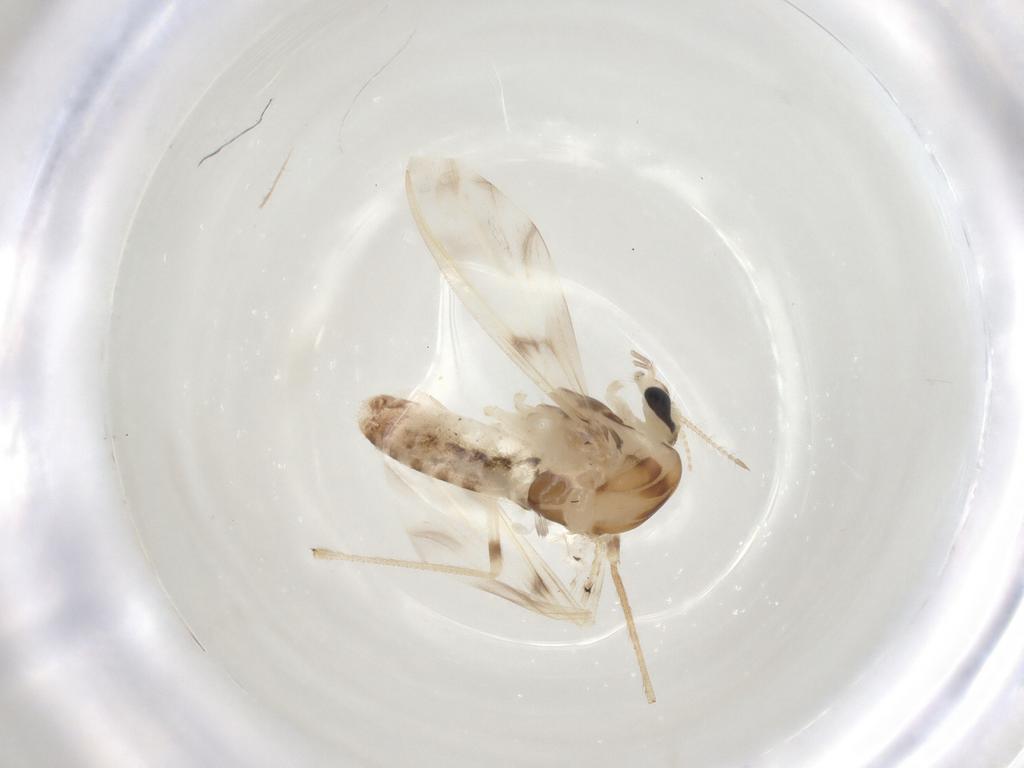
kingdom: Animalia
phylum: Arthropoda
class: Insecta
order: Diptera
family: Chironomidae
